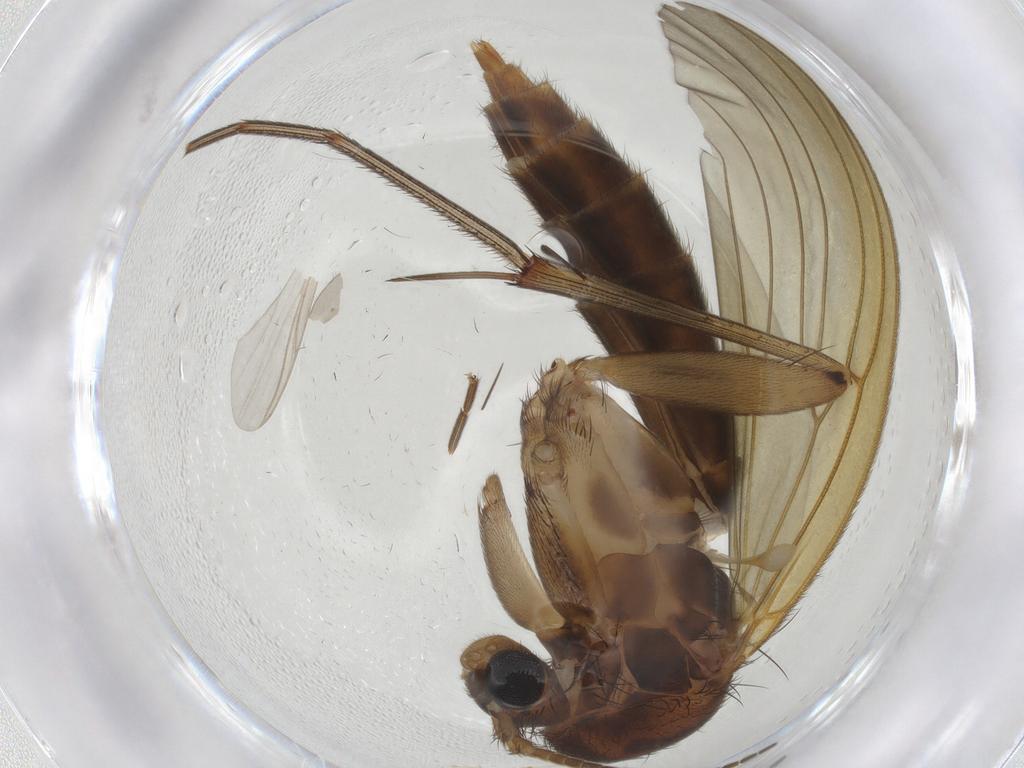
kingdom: Animalia
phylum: Arthropoda
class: Insecta
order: Diptera
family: Mycetophilidae
